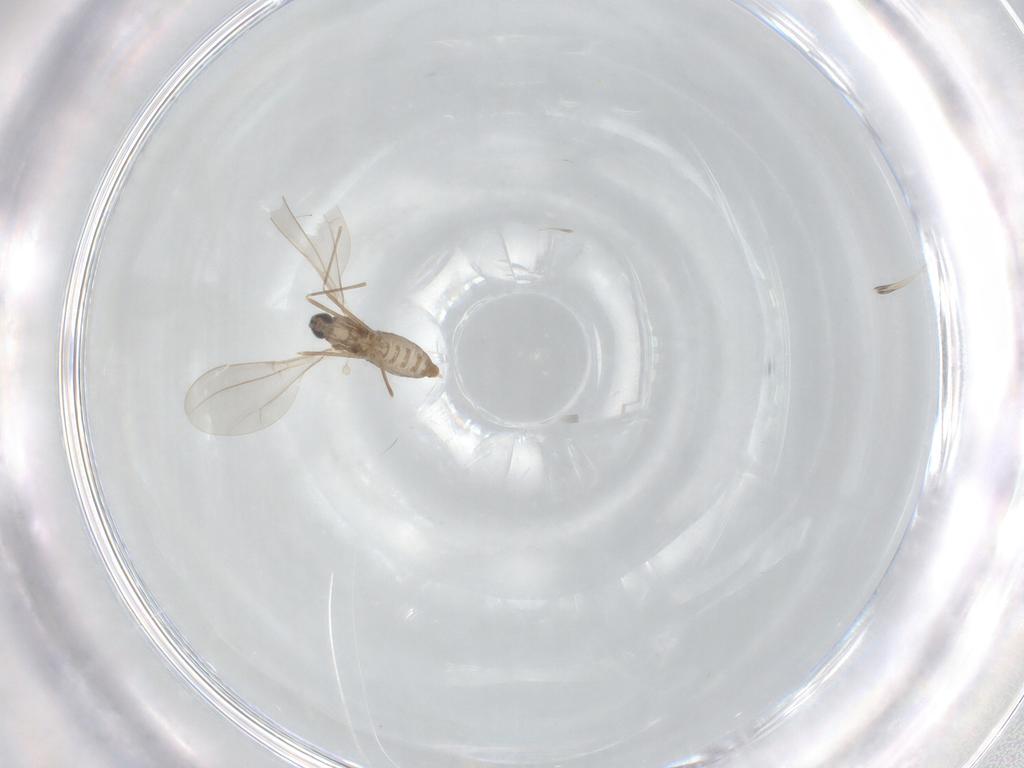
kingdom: Animalia
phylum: Arthropoda
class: Insecta
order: Diptera
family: Cecidomyiidae
